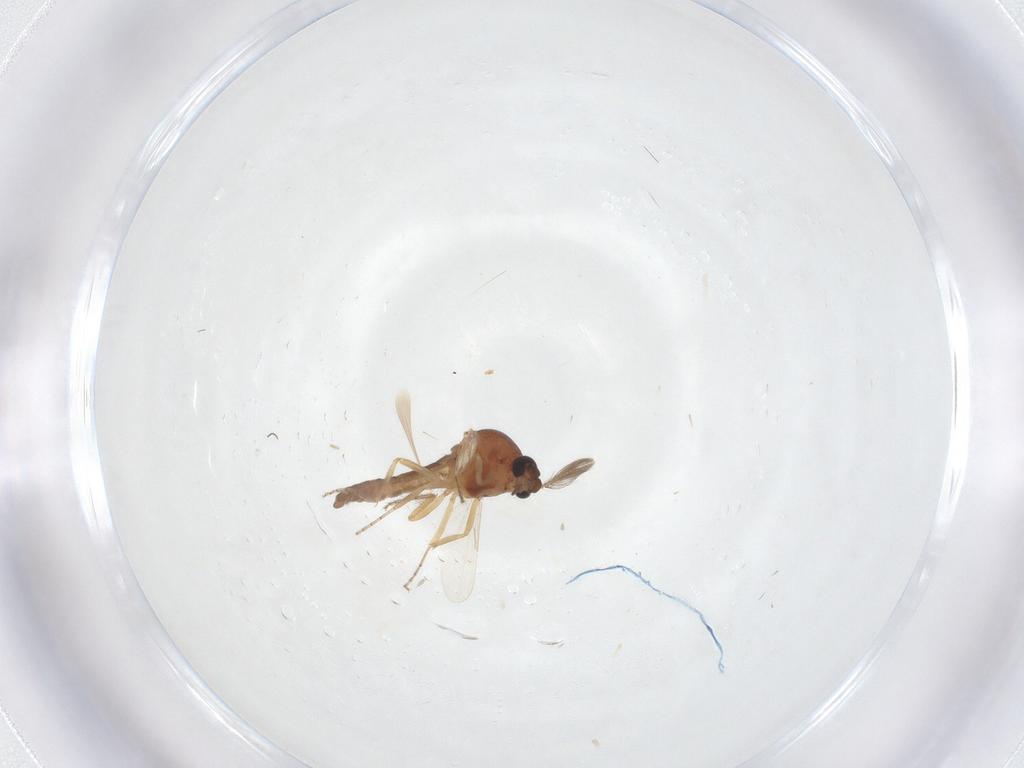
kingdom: Animalia
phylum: Arthropoda
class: Insecta
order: Diptera
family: Ceratopogonidae
